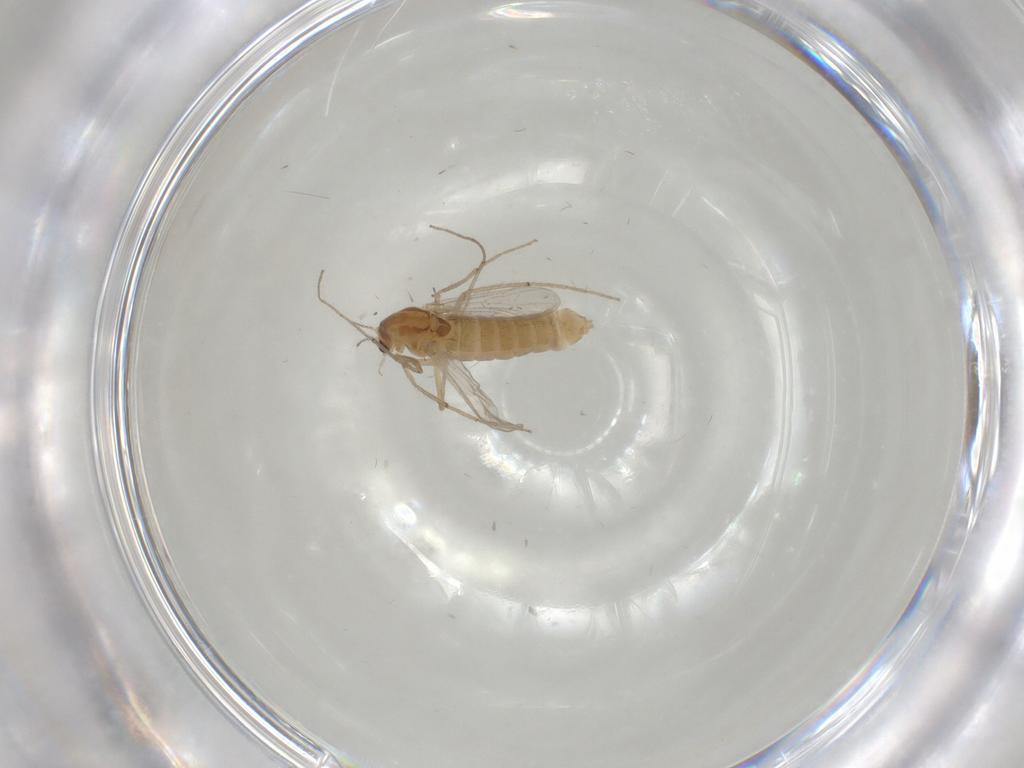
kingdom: Animalia
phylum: Arthropoda
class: Insecta
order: Diptera
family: Chironomidae
